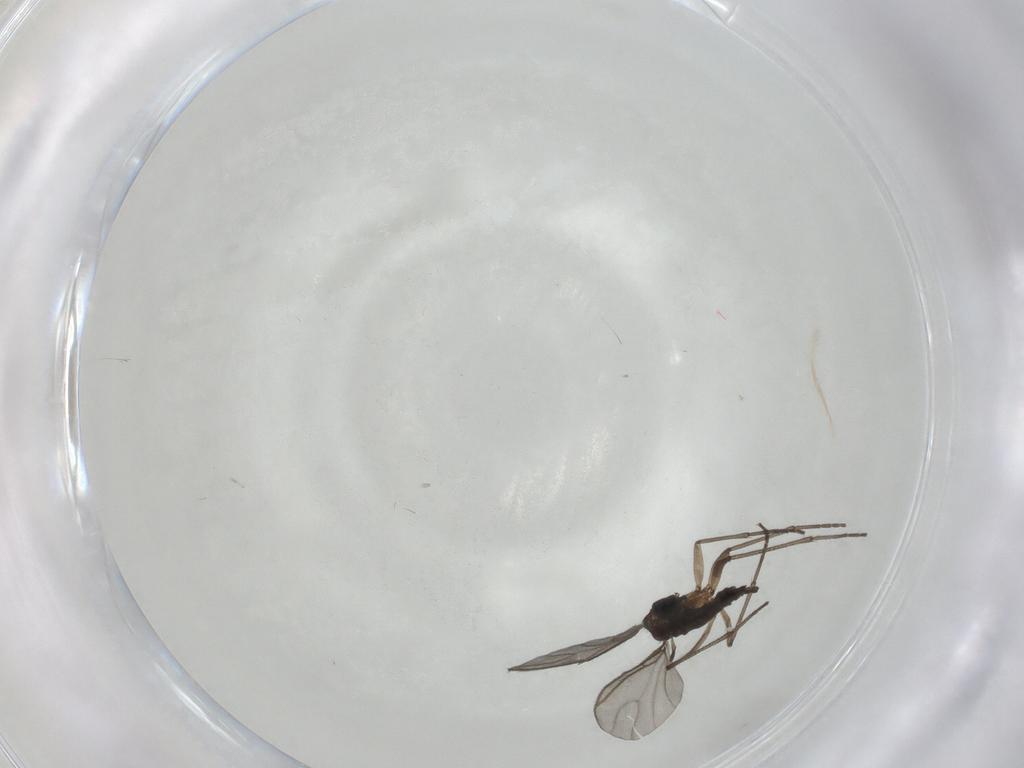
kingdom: Animalia
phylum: Arthropoda
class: Insecta
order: Diptera
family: Sciaridae
